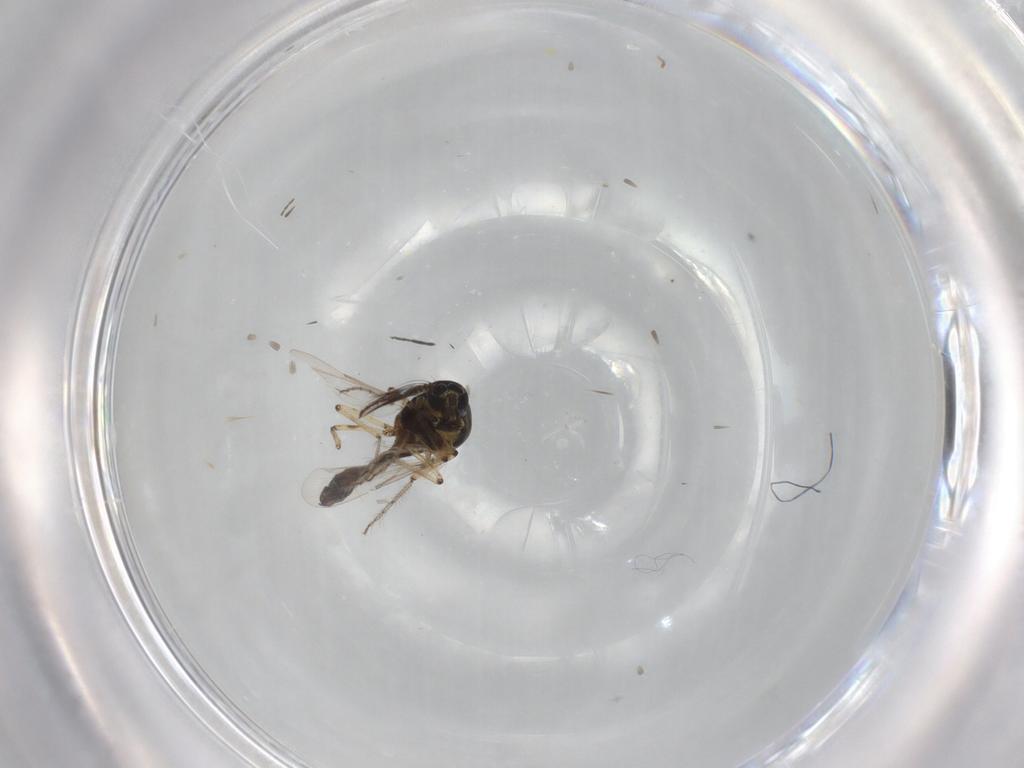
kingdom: Animalia
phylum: Arthropoda
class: Insecta
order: Diptera
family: Ceratopogonidae
